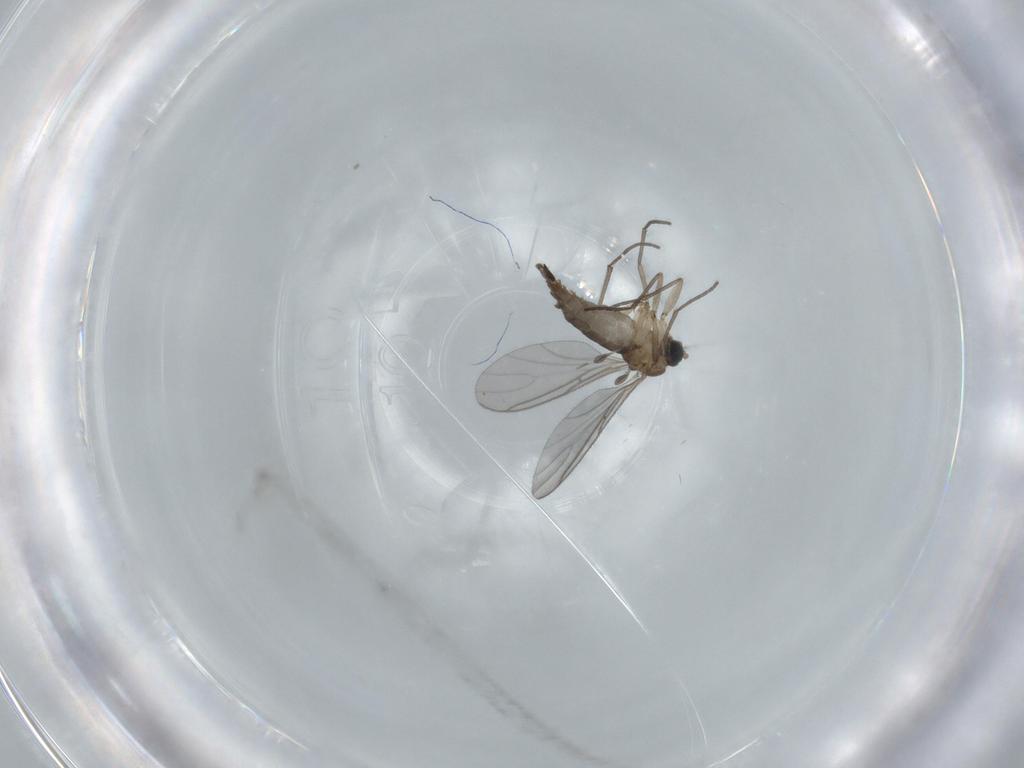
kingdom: Animalia
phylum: Arthropoda
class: Insecta
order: Diptera
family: Sciaridae
